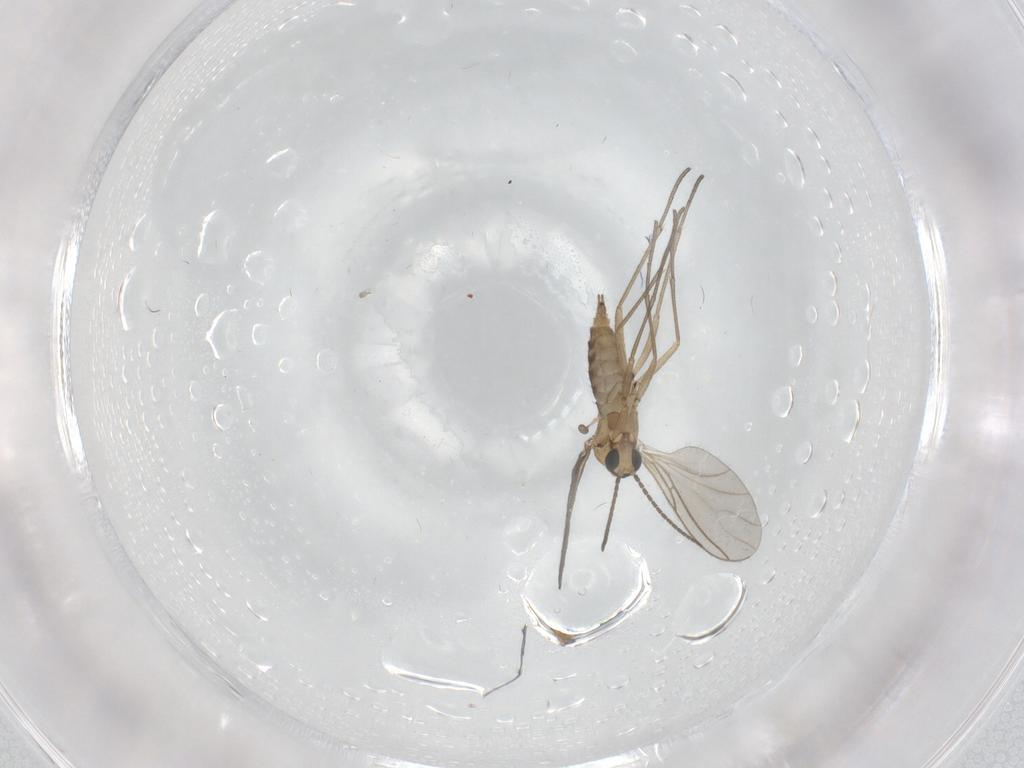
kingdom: Animalia
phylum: Arthropoda
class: Insecta
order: Diptera
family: Sciaridae
